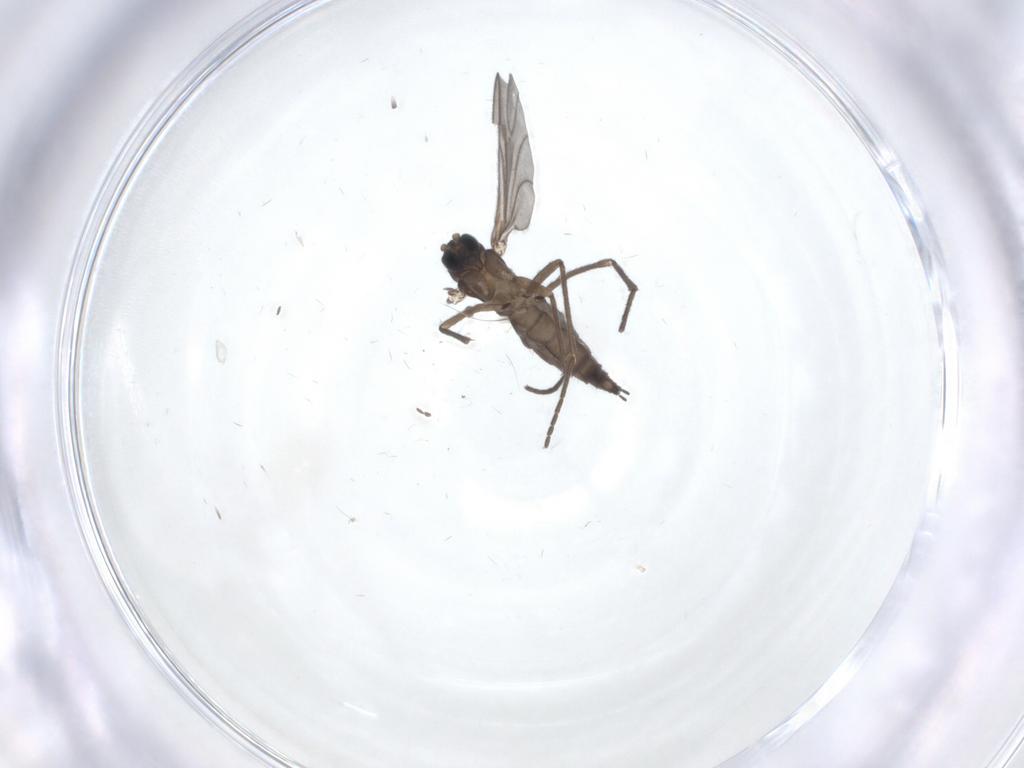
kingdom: Animalia
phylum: Arthropoda
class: Insecta
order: Diptera
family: Sciaridae
